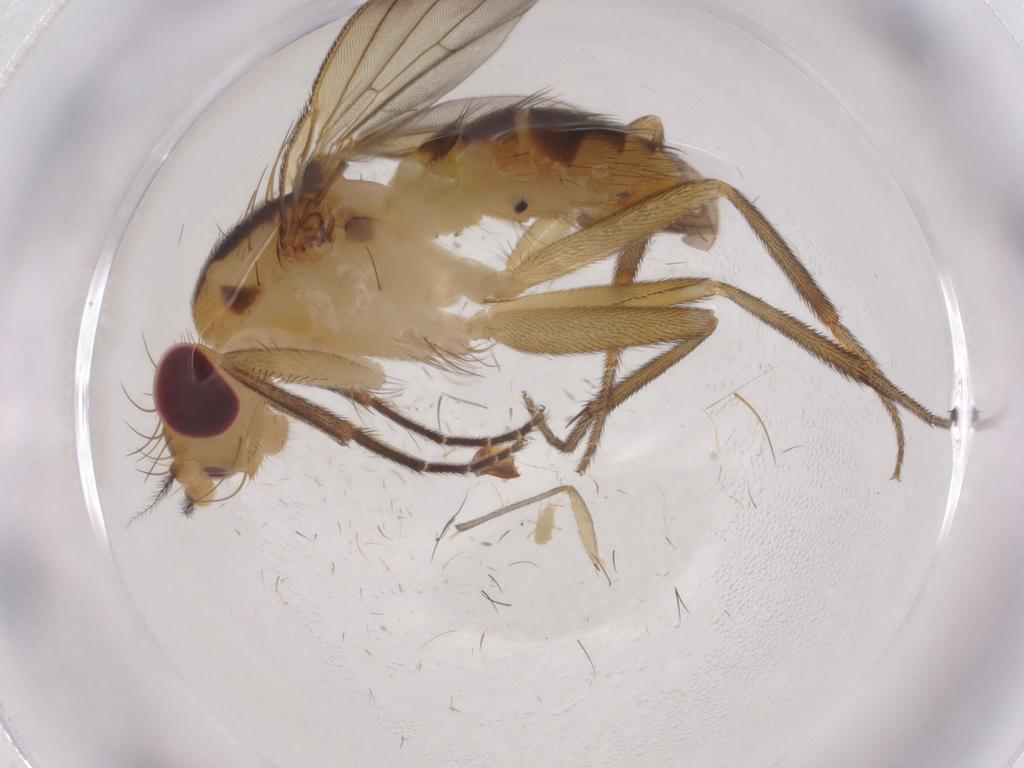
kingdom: Animalia
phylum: Arthropoda
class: Insecta
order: Diptera
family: Clusiidae
